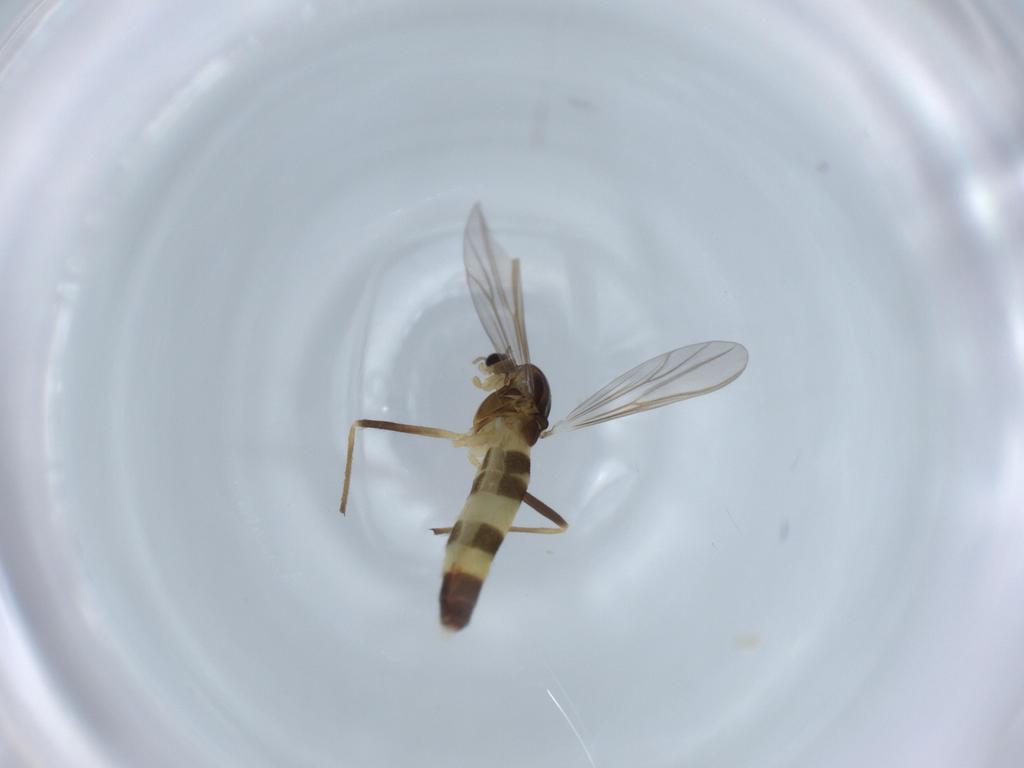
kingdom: Animalia
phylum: Arthropoda
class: Insecta
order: Diptera
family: Chironomidae
